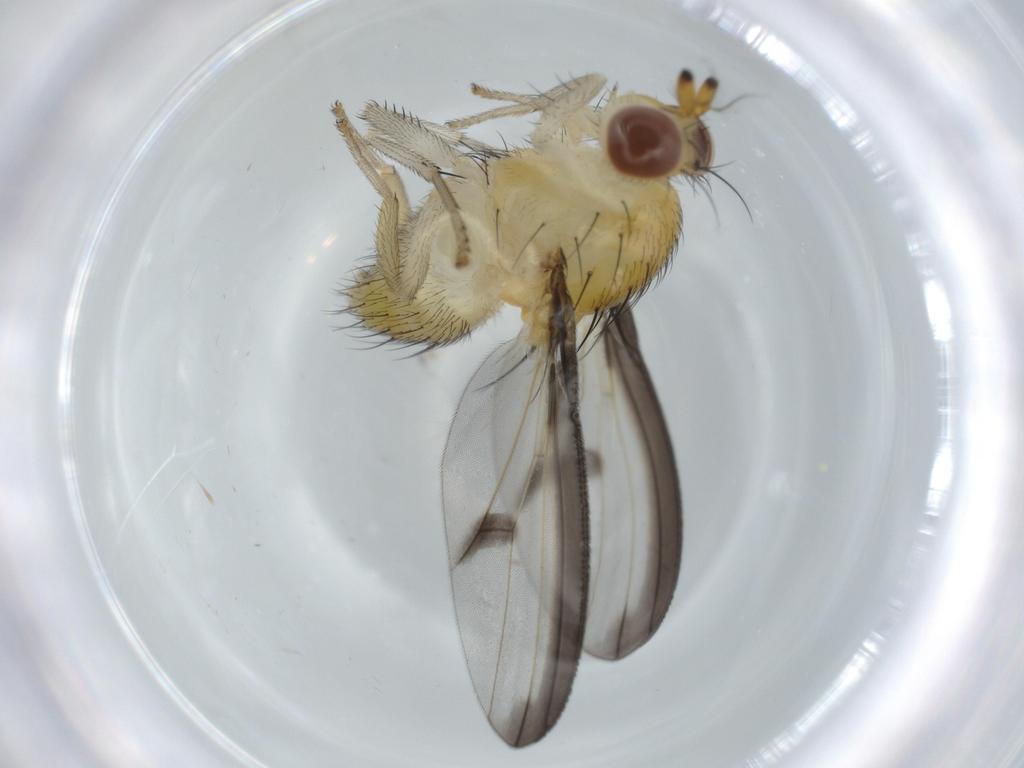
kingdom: Animalia
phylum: Arthropoda
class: Insecta
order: Diptera
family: Lauxaniidae
